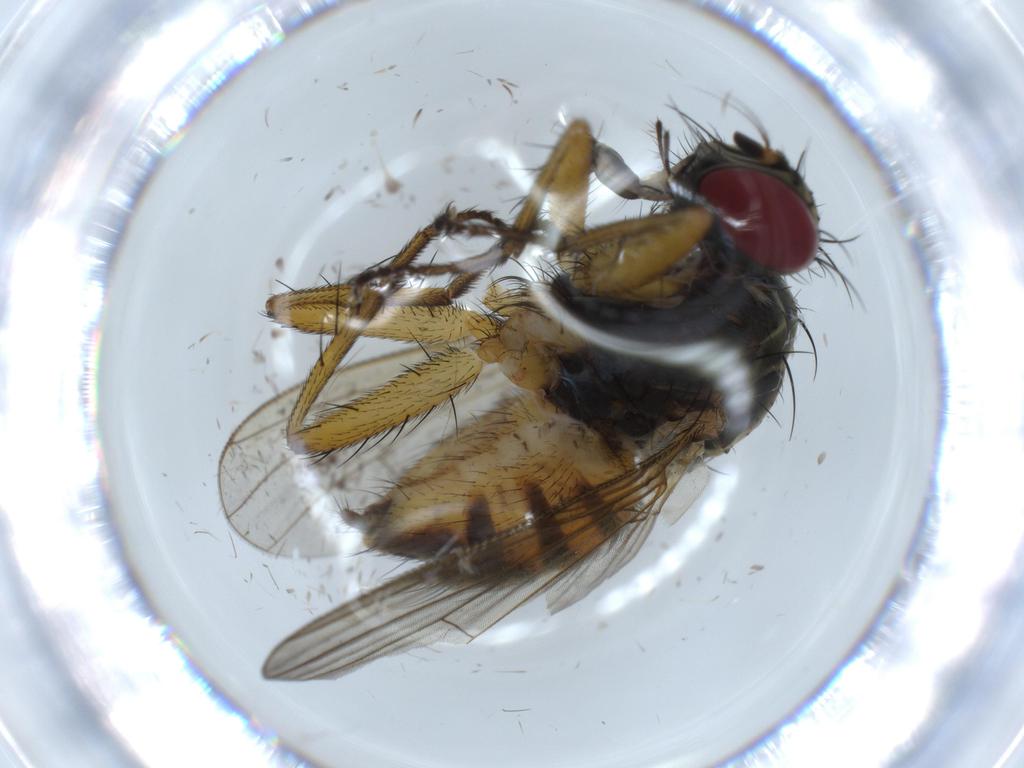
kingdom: Animalia
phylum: Arthropoda
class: Insecta
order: Diptera
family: Muscidae
